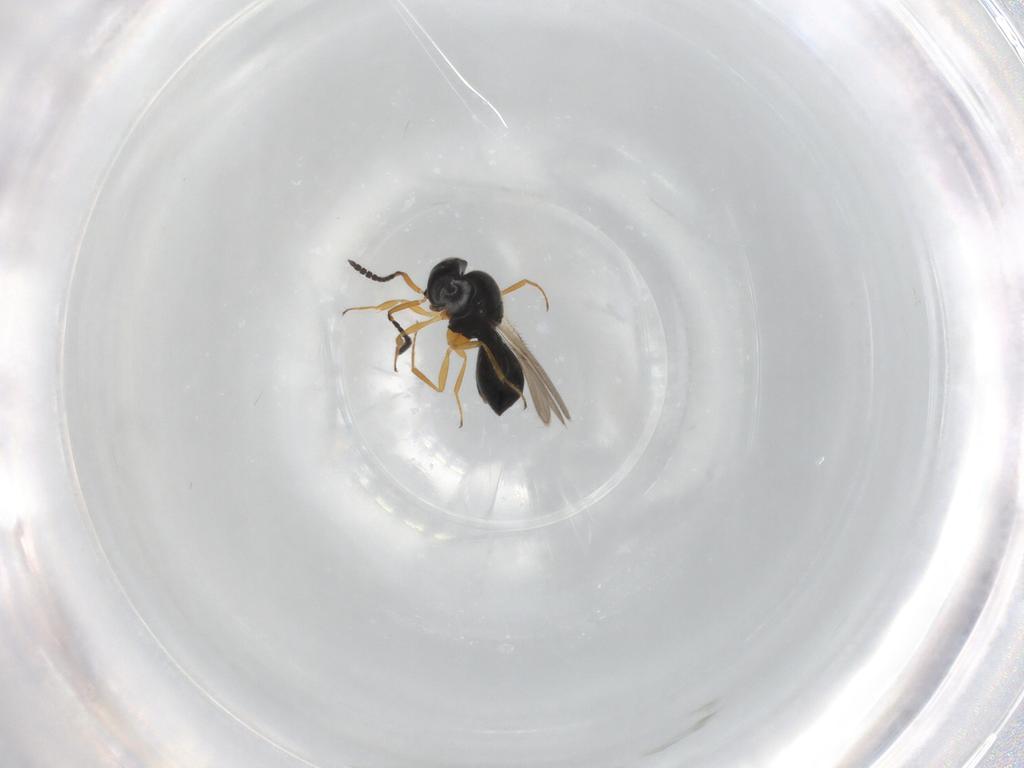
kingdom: Animalia
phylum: Arthropoda
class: Insecta
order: Hymenoptera
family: Scelionidae
